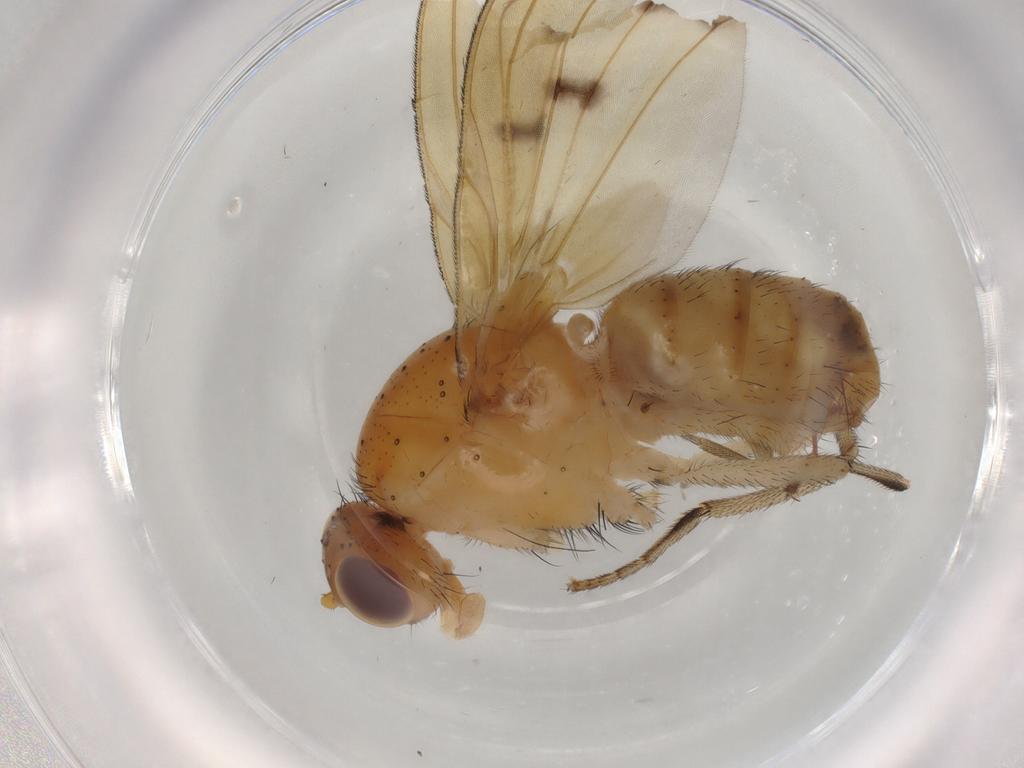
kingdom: Animalia
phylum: Arthropoda
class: Insecta
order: Diptera
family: Dolichopodidae
